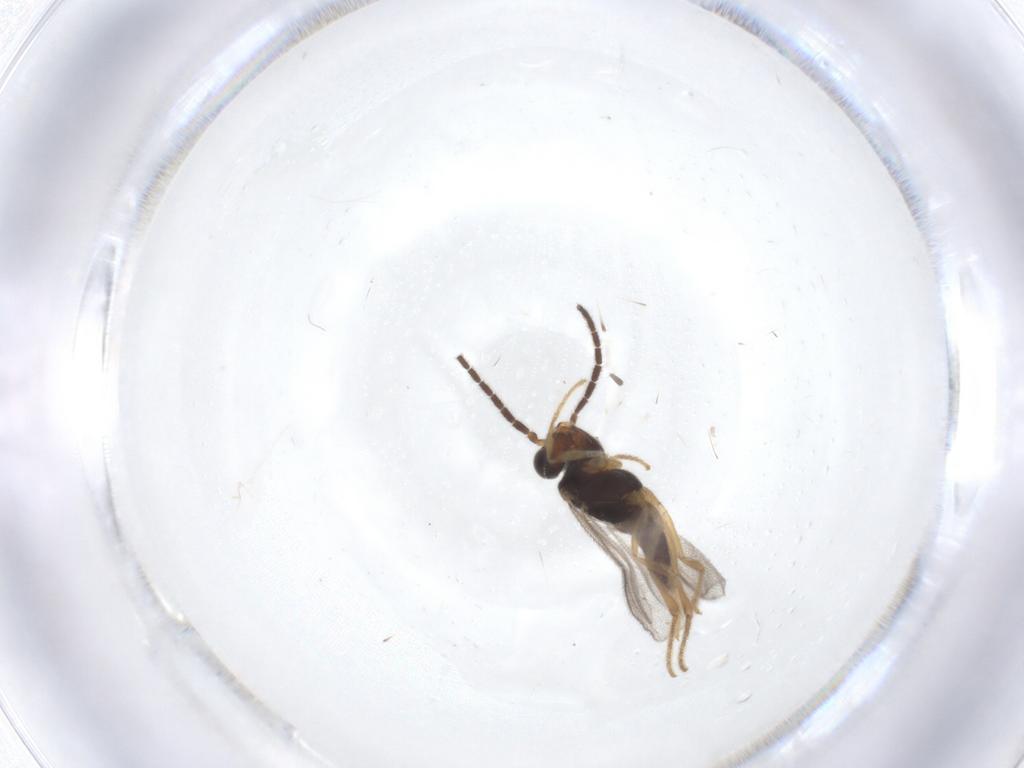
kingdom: Animalia
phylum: Arthropoda
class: Insecta
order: Hymenoptera
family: Dryinidae
